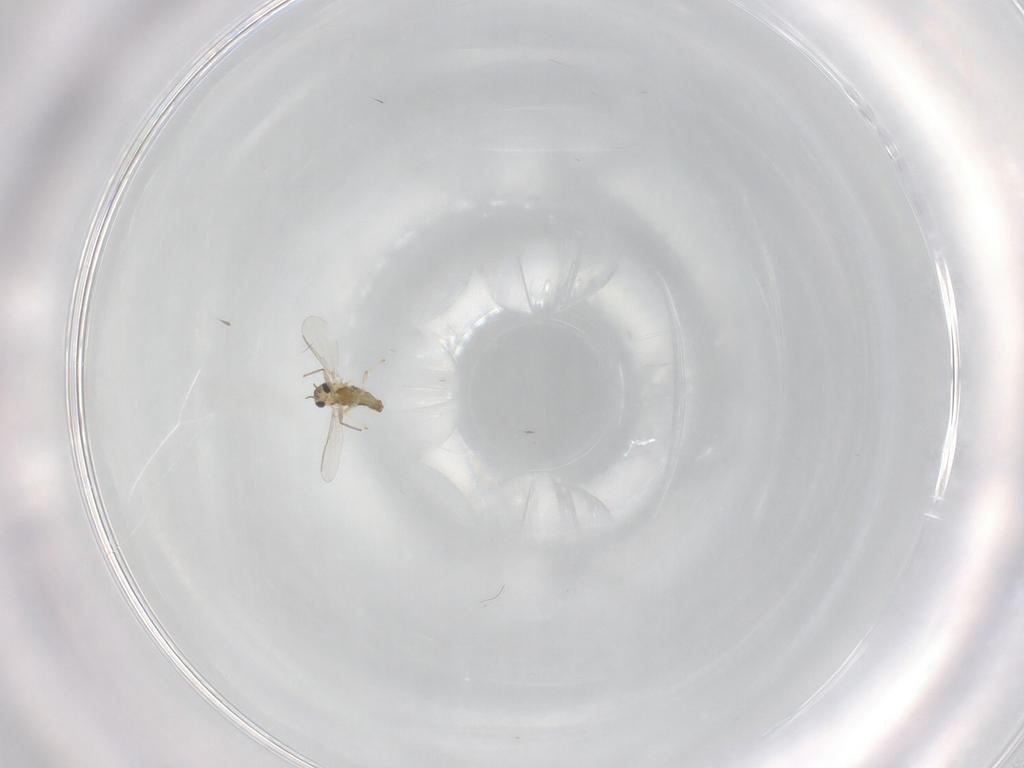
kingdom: Animalia
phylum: Arthropoda
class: Insecta
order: Diptera
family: Chironomidae
